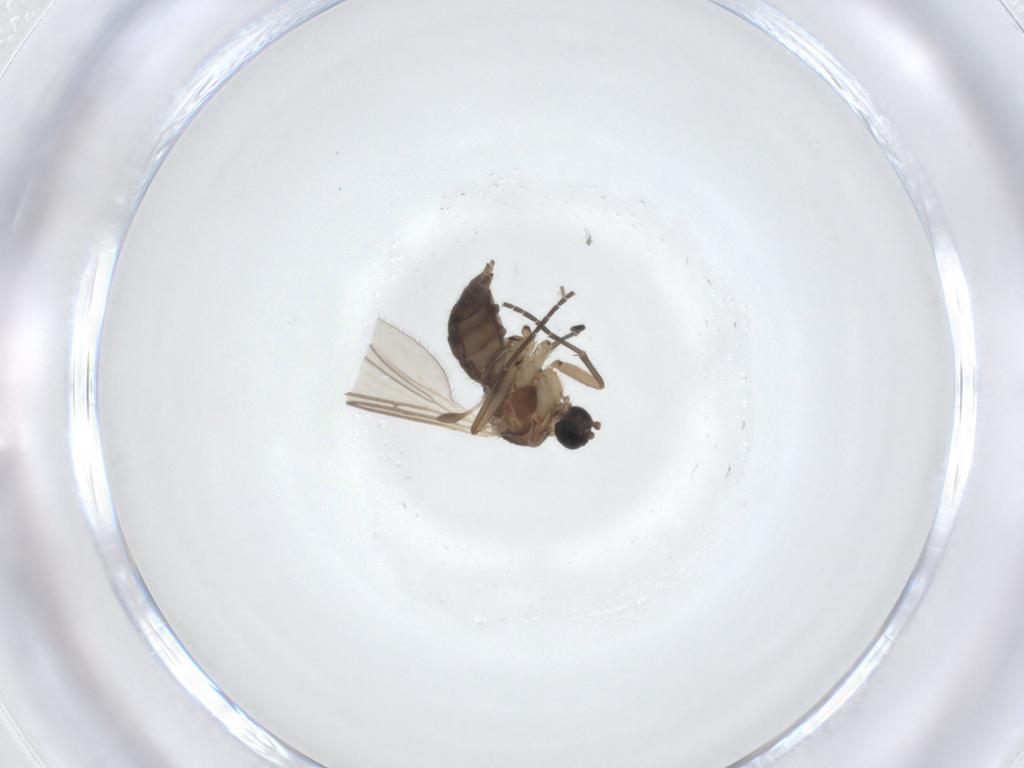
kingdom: Animalia
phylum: Arthropoda
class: Insecta
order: Diptera
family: Sciaridae
